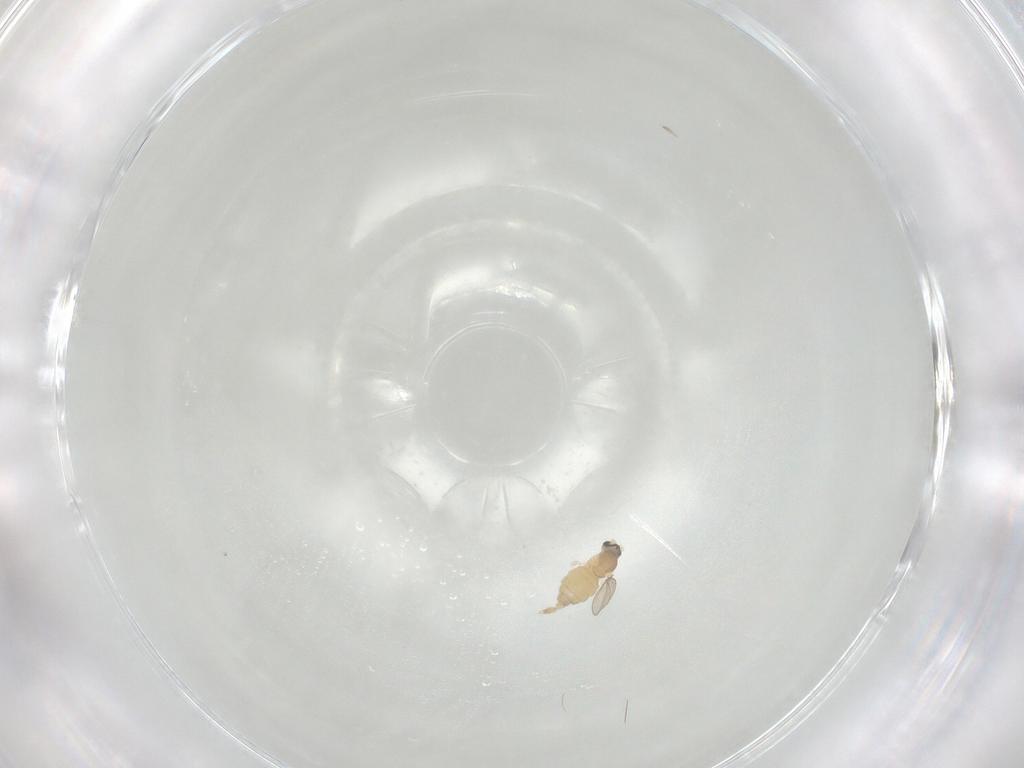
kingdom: Animalia
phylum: Arthropoda
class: Insecta
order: Diptera
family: Cecidomyiidae
